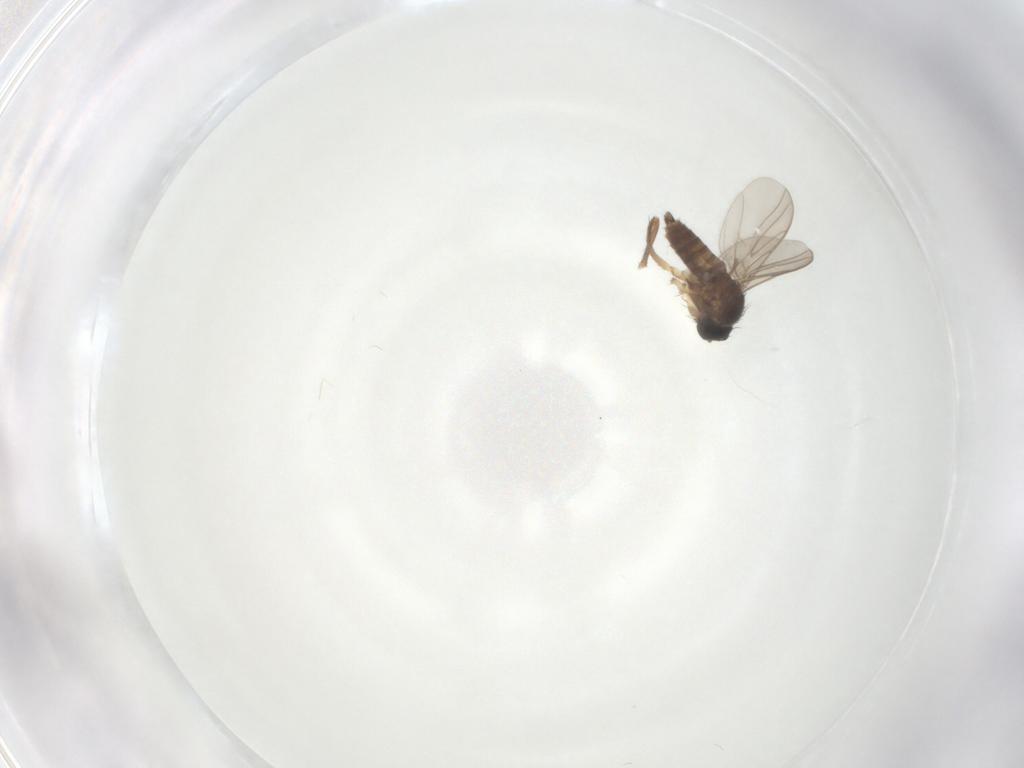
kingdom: Animalia
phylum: Arthropoda
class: Insecta
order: Diptera
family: Hybotidae
